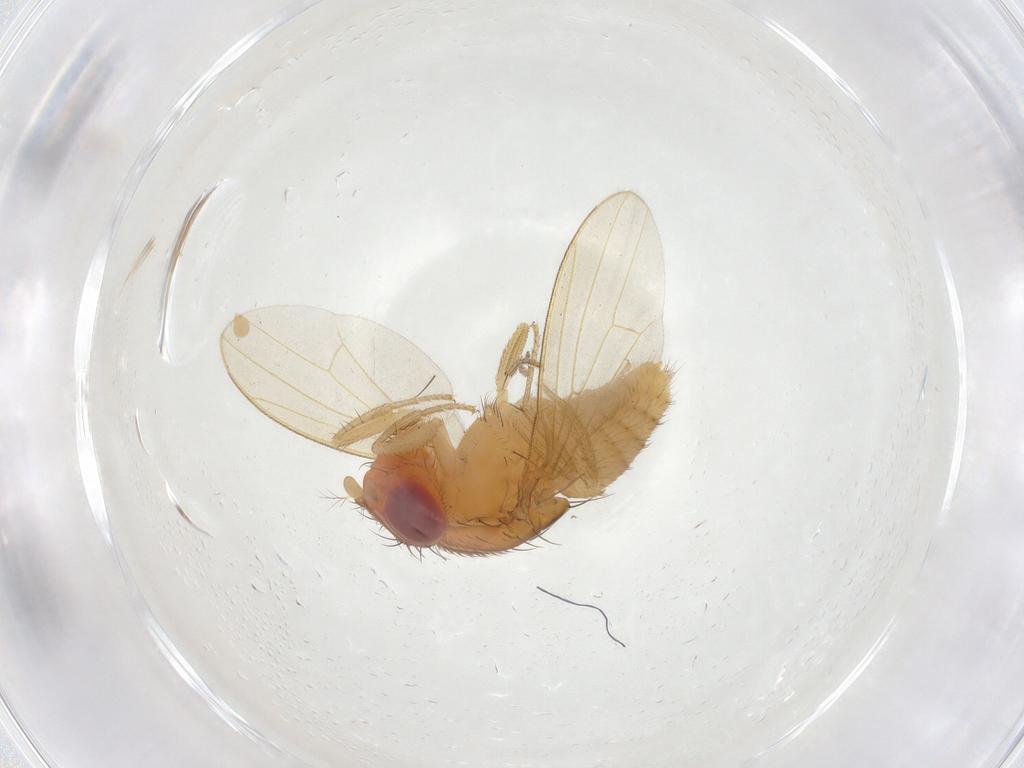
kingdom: Animalia
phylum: Arthropoda
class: Insecta
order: Diptera
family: Drosophilidae
